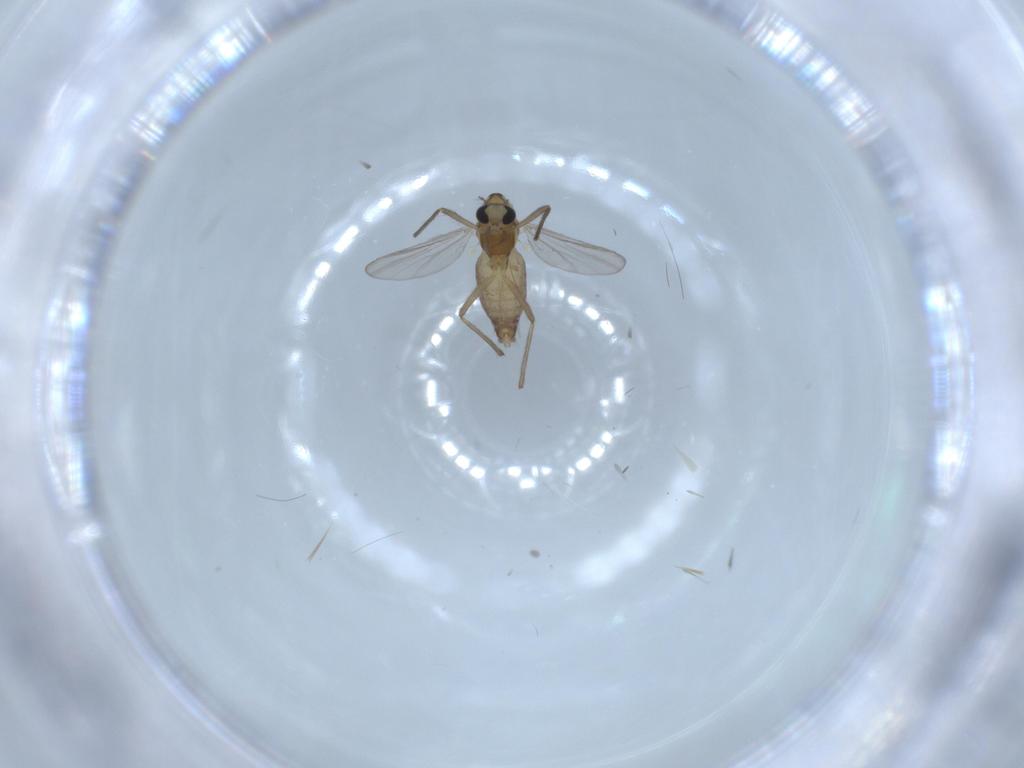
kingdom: Animalia
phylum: Arthropoda
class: Insecta
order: Diptera
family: Chironomidae
